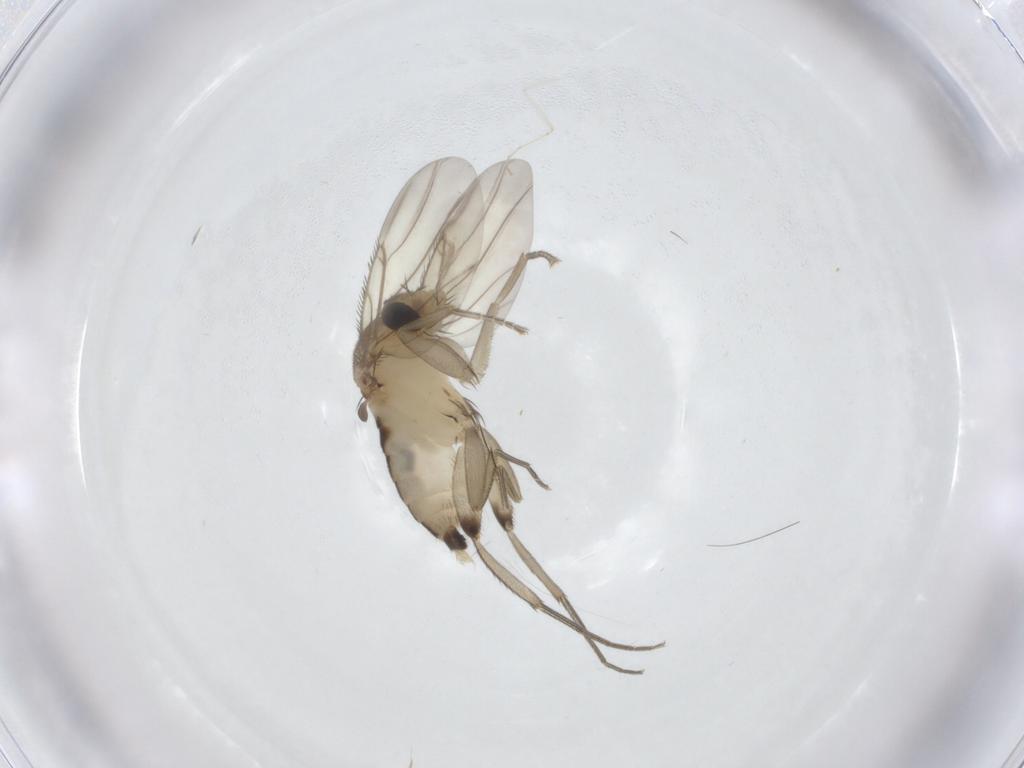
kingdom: Animalia
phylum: Arthropoda
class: Insecta
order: Diptera
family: Phoridae
